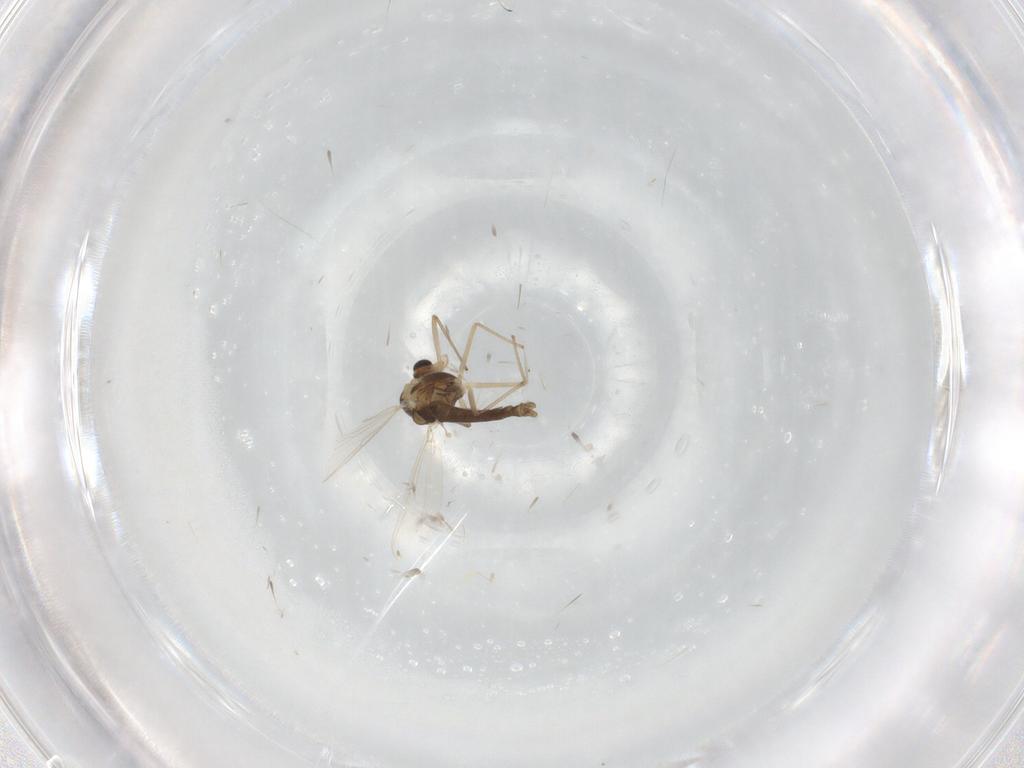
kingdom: Animalia
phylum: Arthropoda
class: Insecta
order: Diptera
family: Chironomidae
